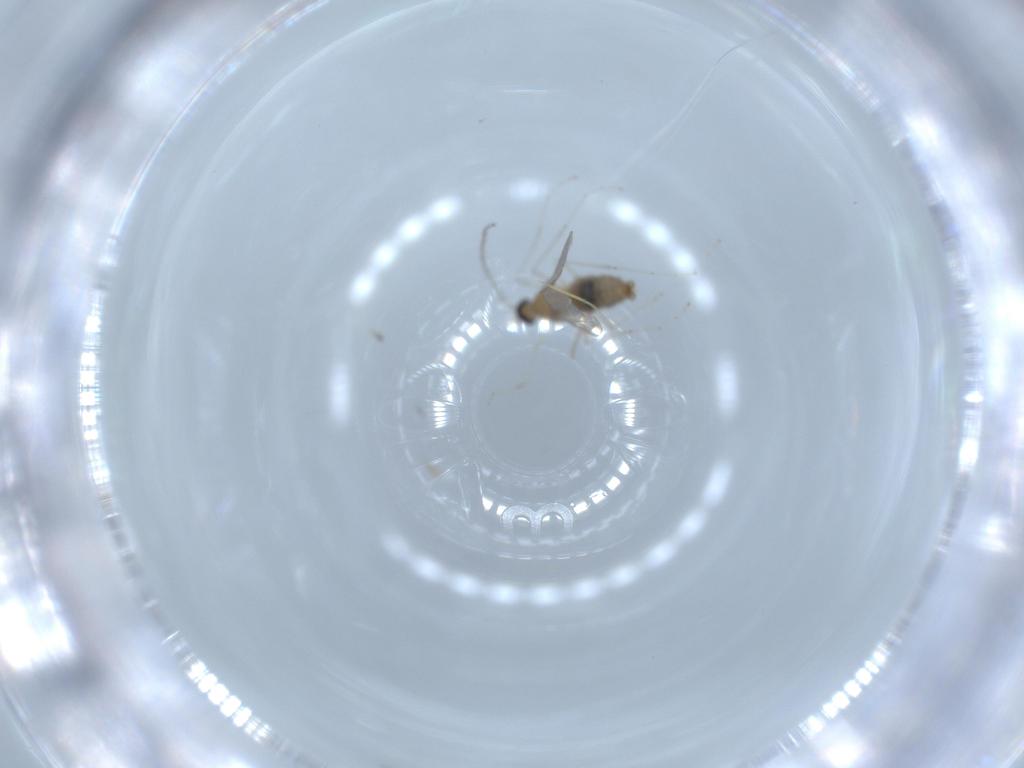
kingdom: Animalia
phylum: Arthropoda
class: Insecta
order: Diptera
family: Cecidomyiidae
